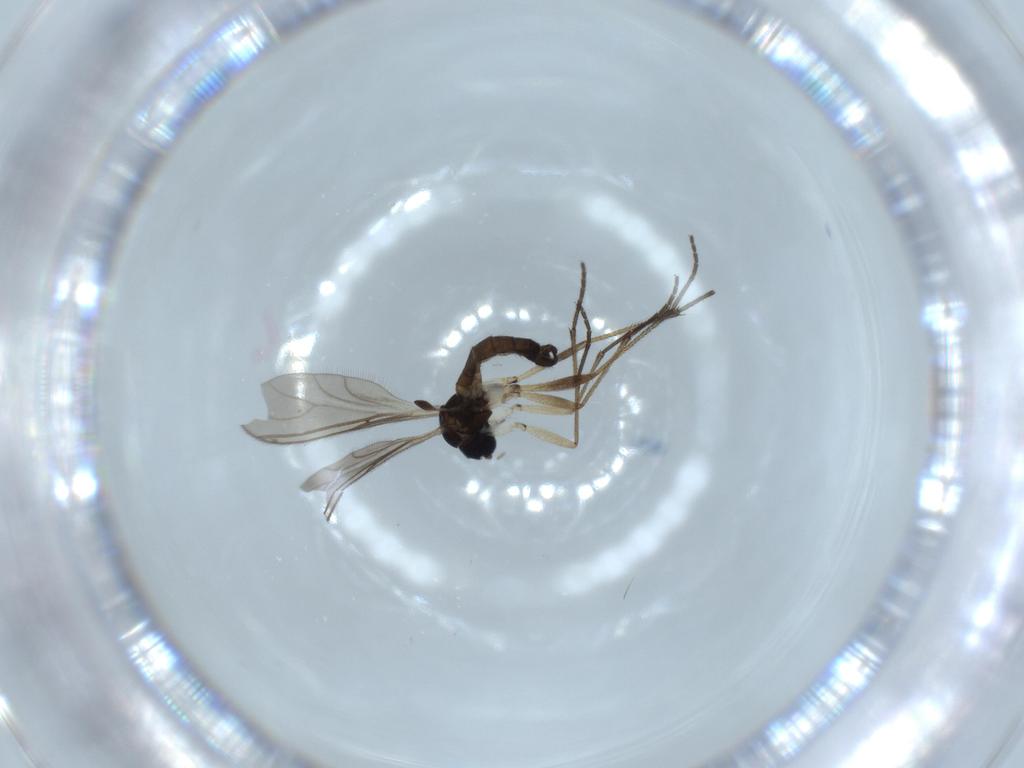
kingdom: Animalia
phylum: Arthropoda
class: Insecta
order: Diptera
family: Sciaridae
